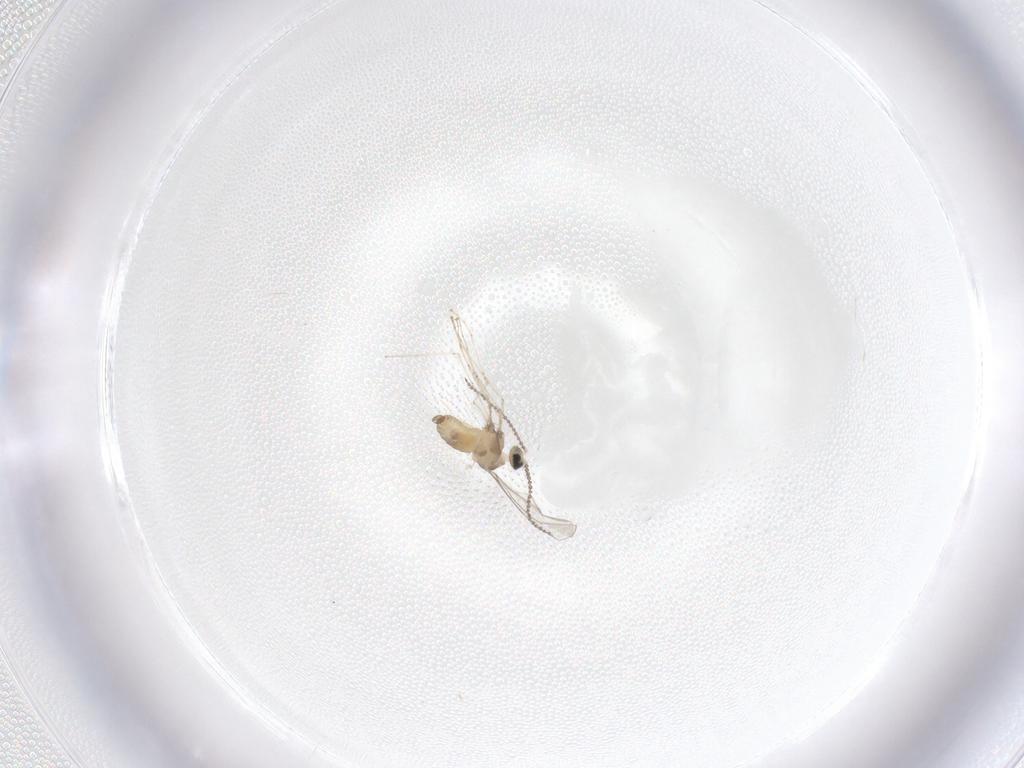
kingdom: Animalia
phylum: Arthropoda
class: Insecta
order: Diptera
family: Cecidomyiidae
